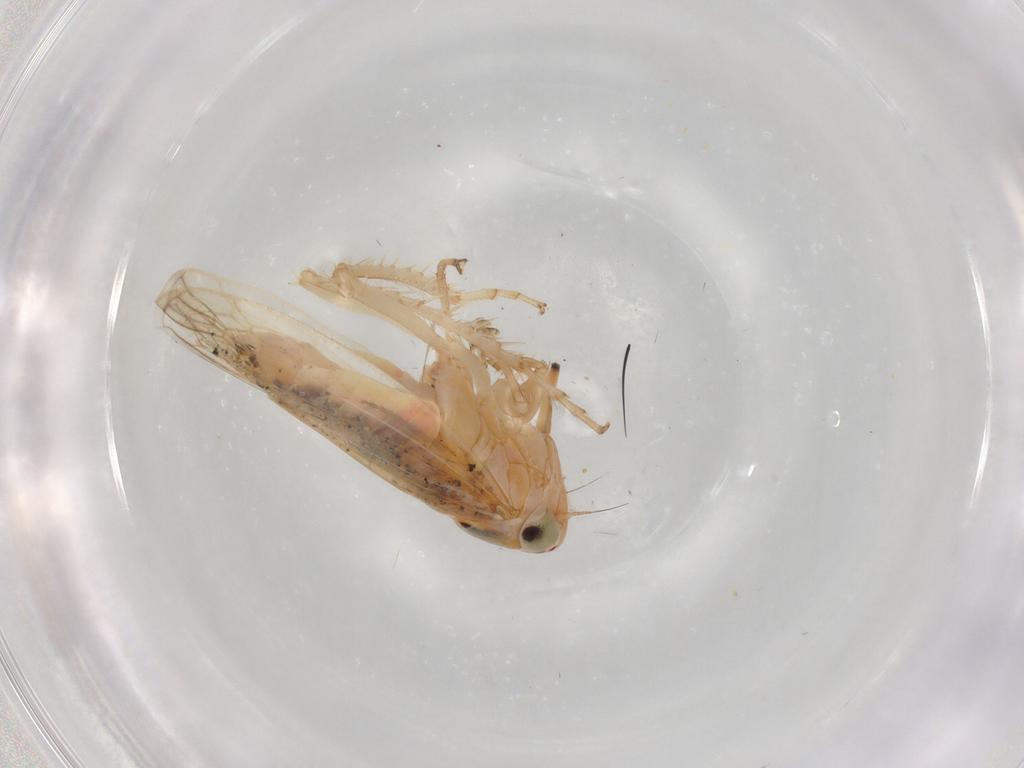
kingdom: Animalia
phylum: Arthropoda
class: Insecta
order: Hemiptera
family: Cicadellidae
